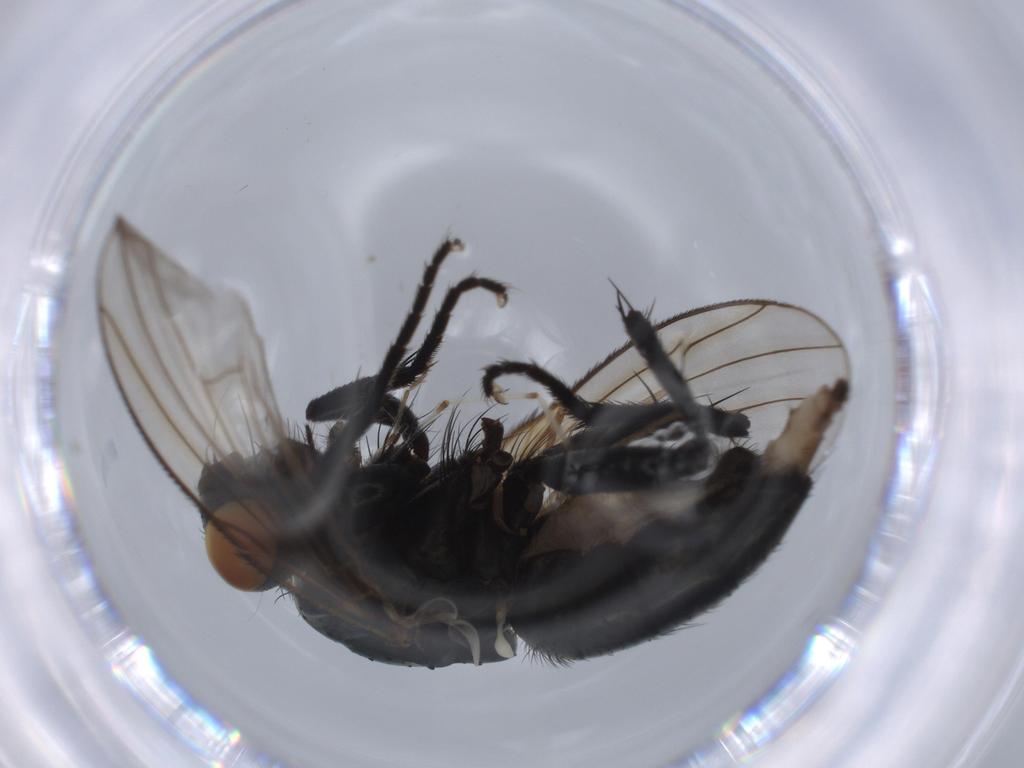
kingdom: Animalia
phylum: Arthropoda
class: Insecta
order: Diptera
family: Muscidae
